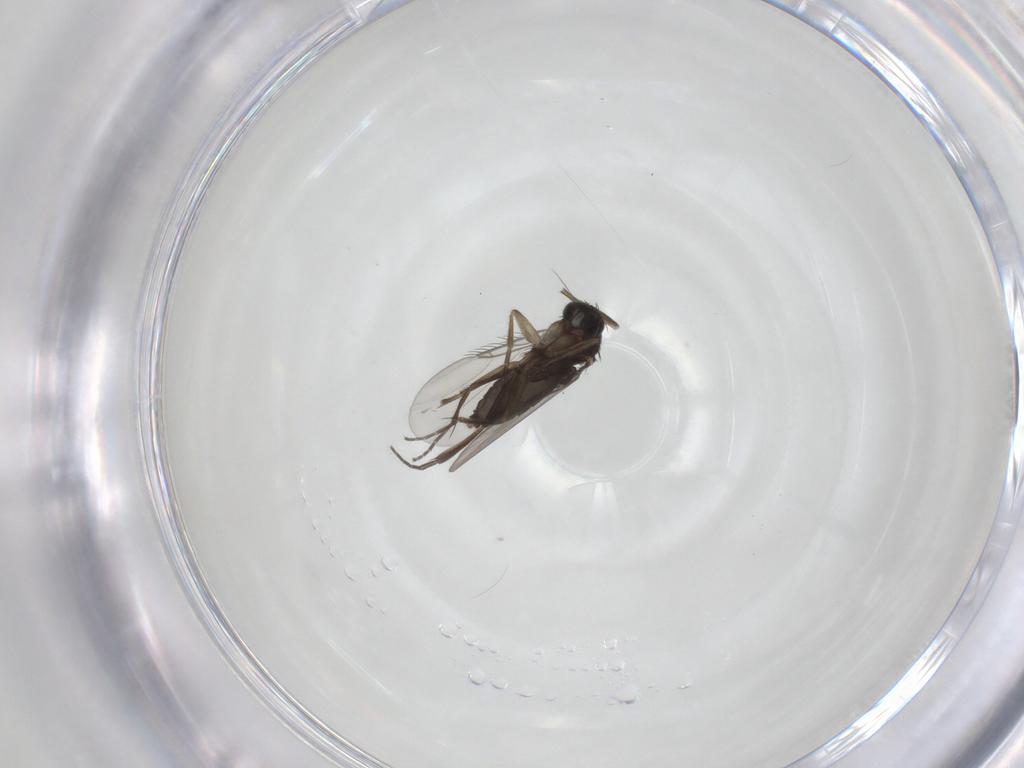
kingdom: Animalia
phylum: Arthropoda
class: Insecta
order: Diptera
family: Phoridae
